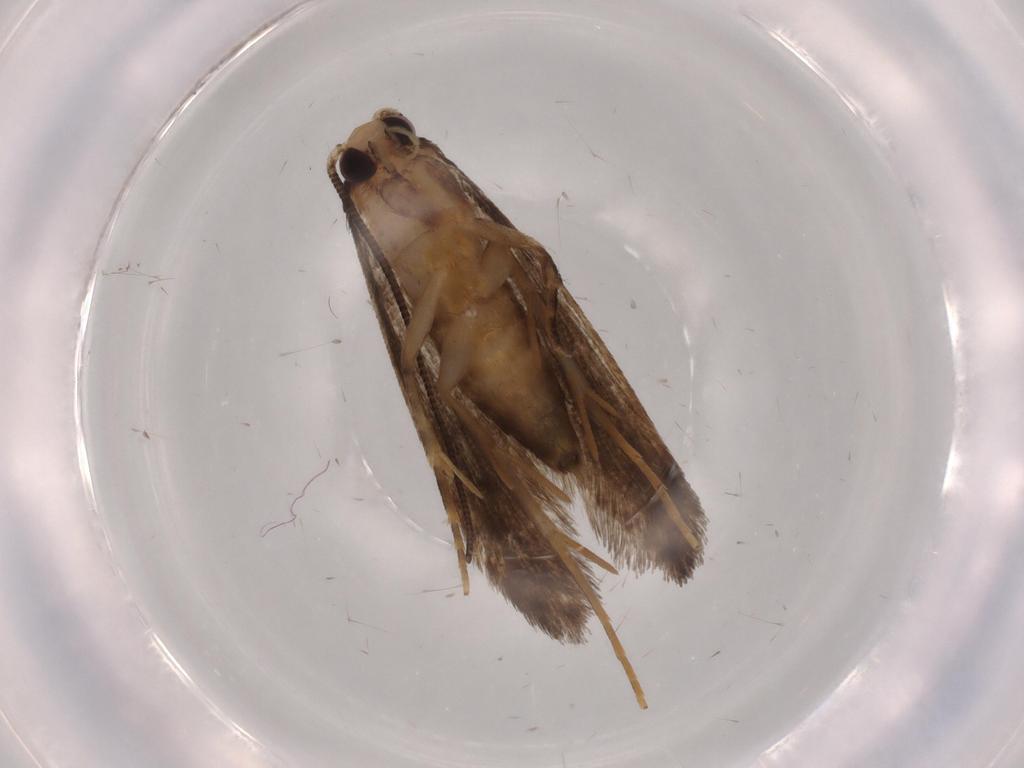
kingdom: Animalia
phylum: Arthropoda
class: Insecta
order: Lepidoptera
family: Tineidae
